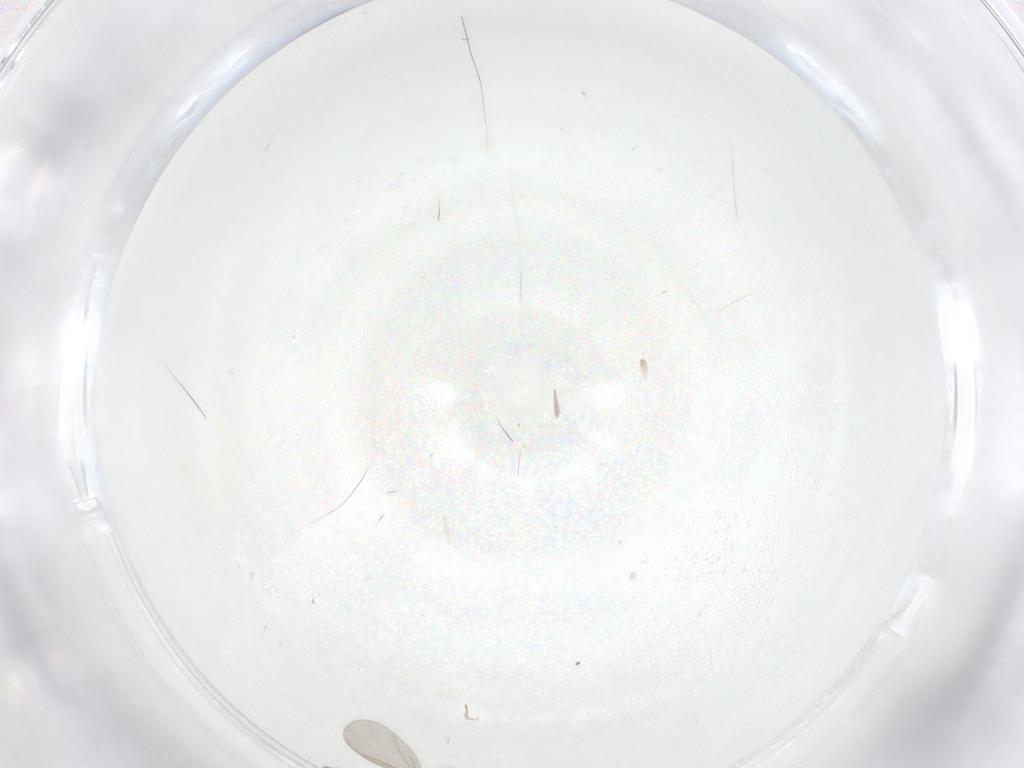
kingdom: Animalia
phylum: Arthropoda
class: Insecta
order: Diptera
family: Sciaridae
